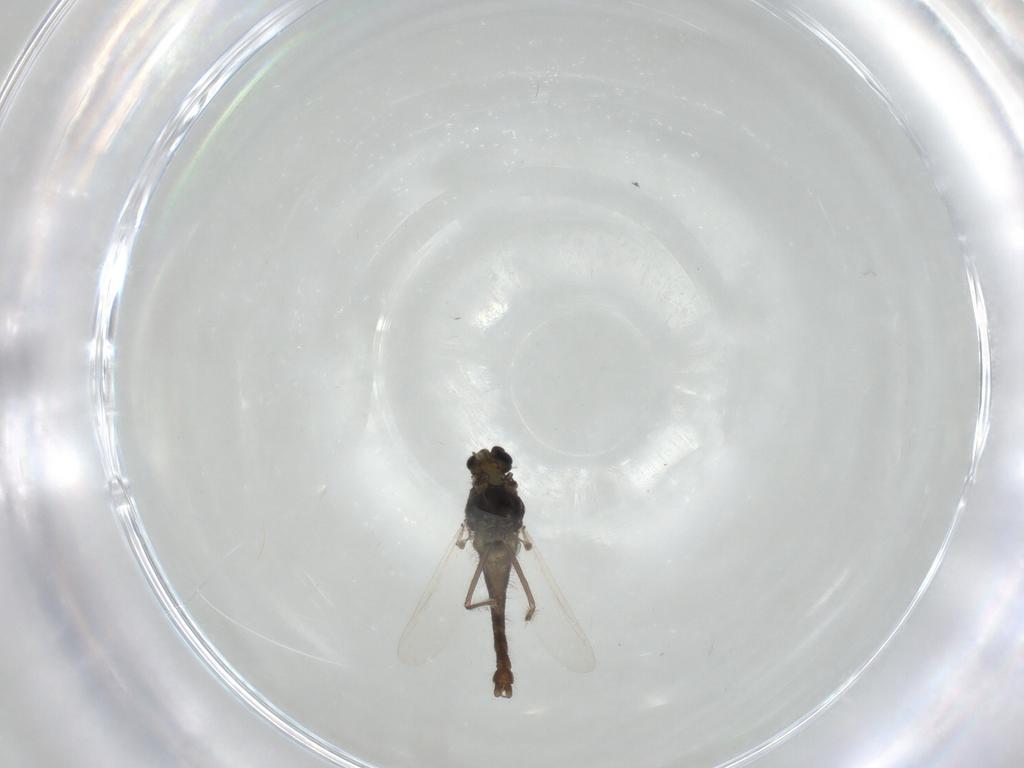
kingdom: Animalia
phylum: Arthropoda
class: Insecta
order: Diptera
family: Chironomidae
